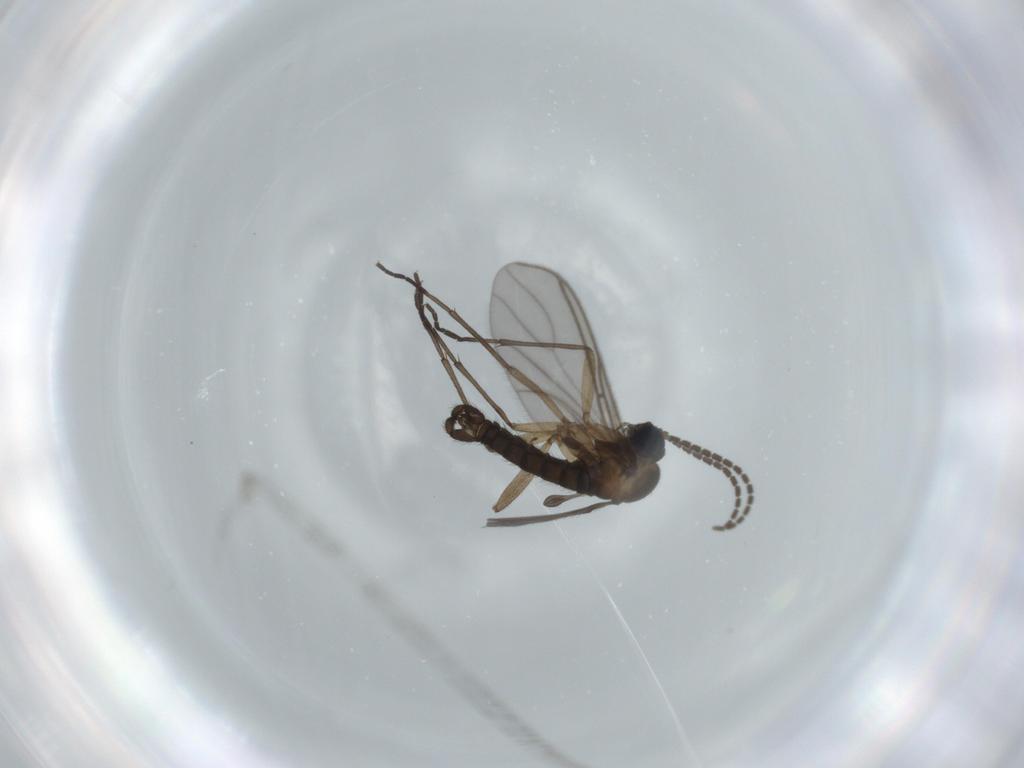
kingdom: Animalia
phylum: Arthropoda
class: Insecta
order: Diptera
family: Sciaridae
